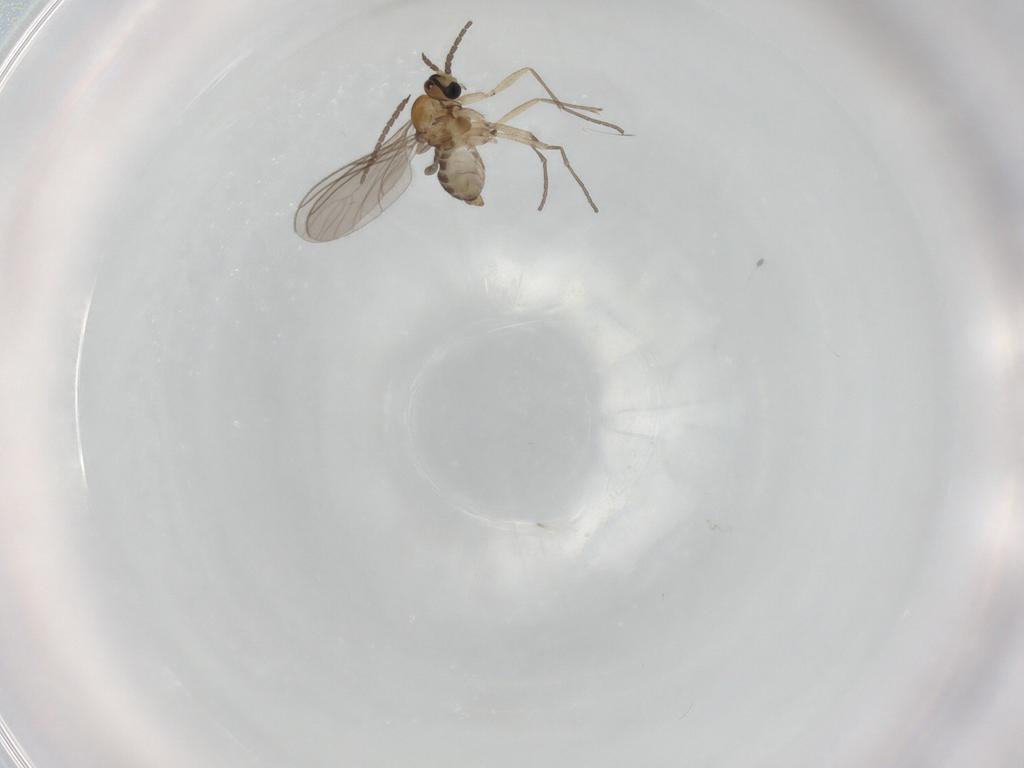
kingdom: Animalia
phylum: Arthropoda
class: Insecta
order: Diptera
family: Sciaridae
